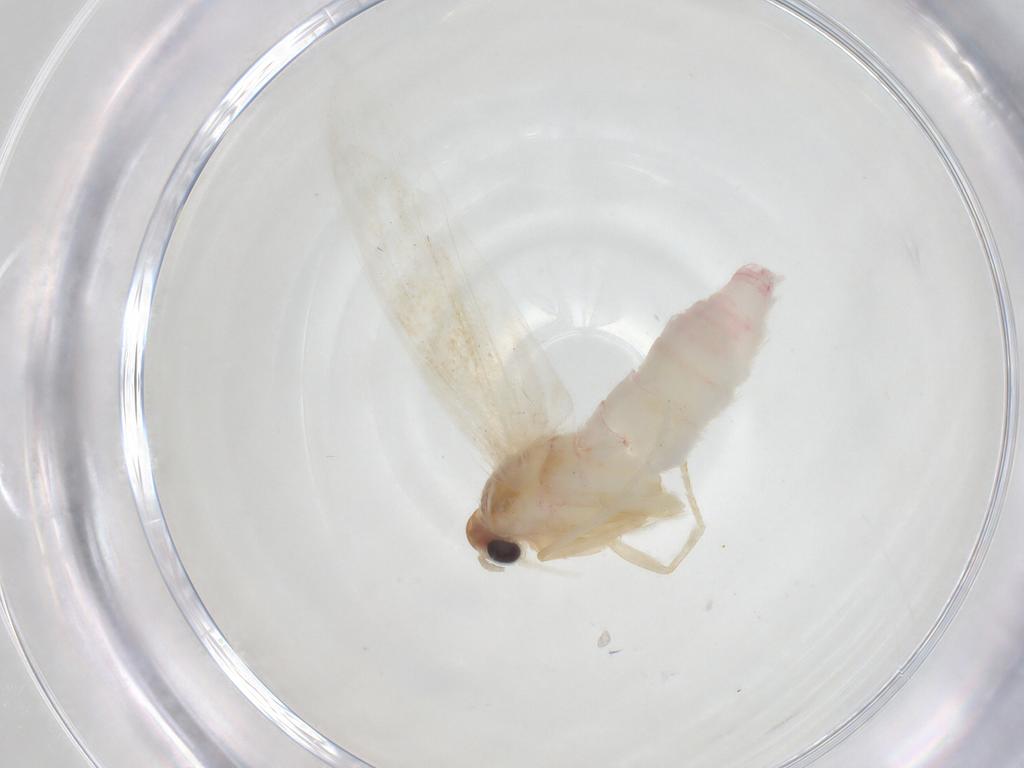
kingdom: Animalia
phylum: Arthropoda
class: Insecta
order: Lepidoptera
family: Autostichidae
